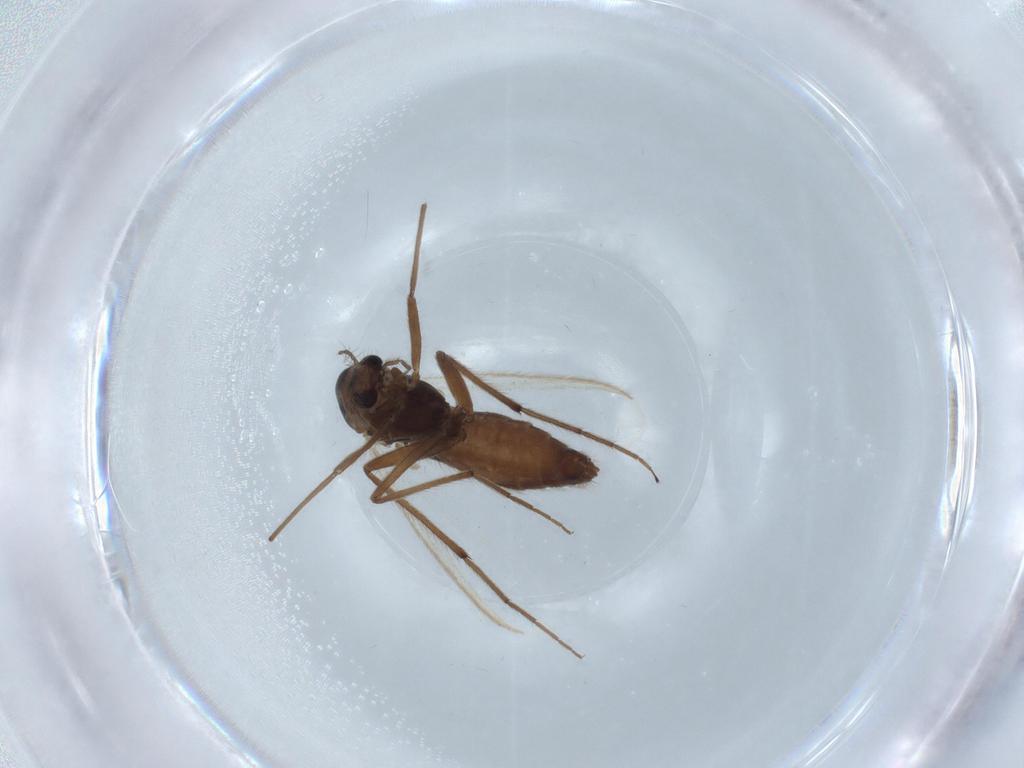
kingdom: Animalia
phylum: Arthropoda
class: Insecta
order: Diptera
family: Chironomidae
